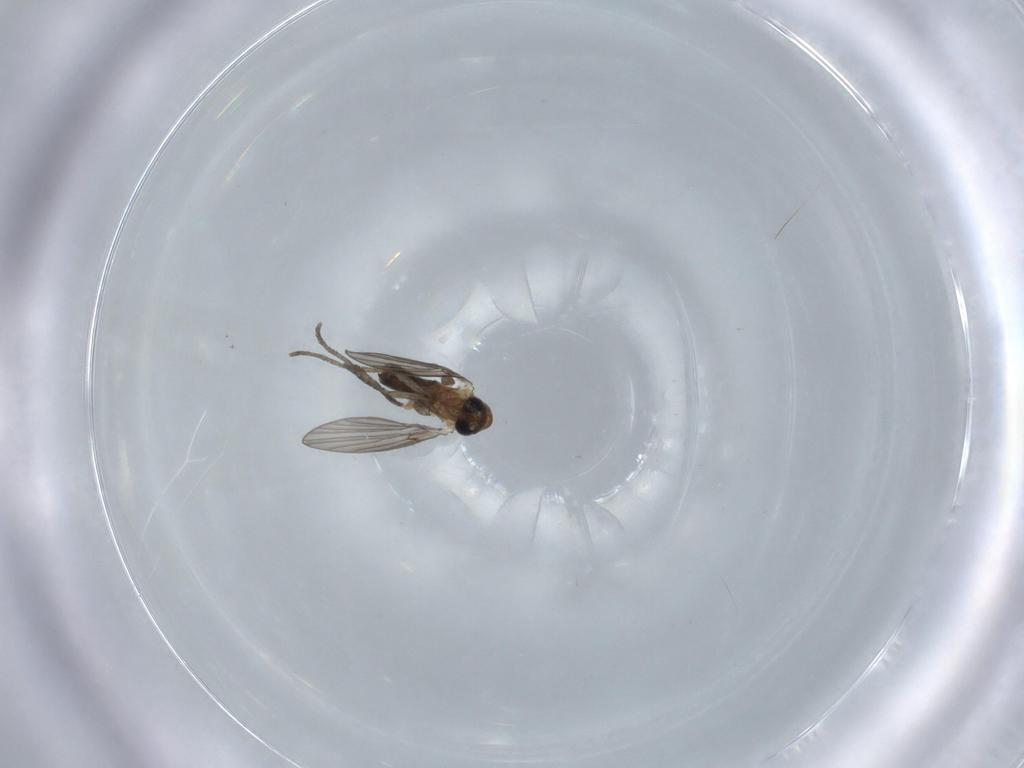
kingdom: Animalia
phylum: Arthropoda
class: Insecta
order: Diptera
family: Psychodidae
